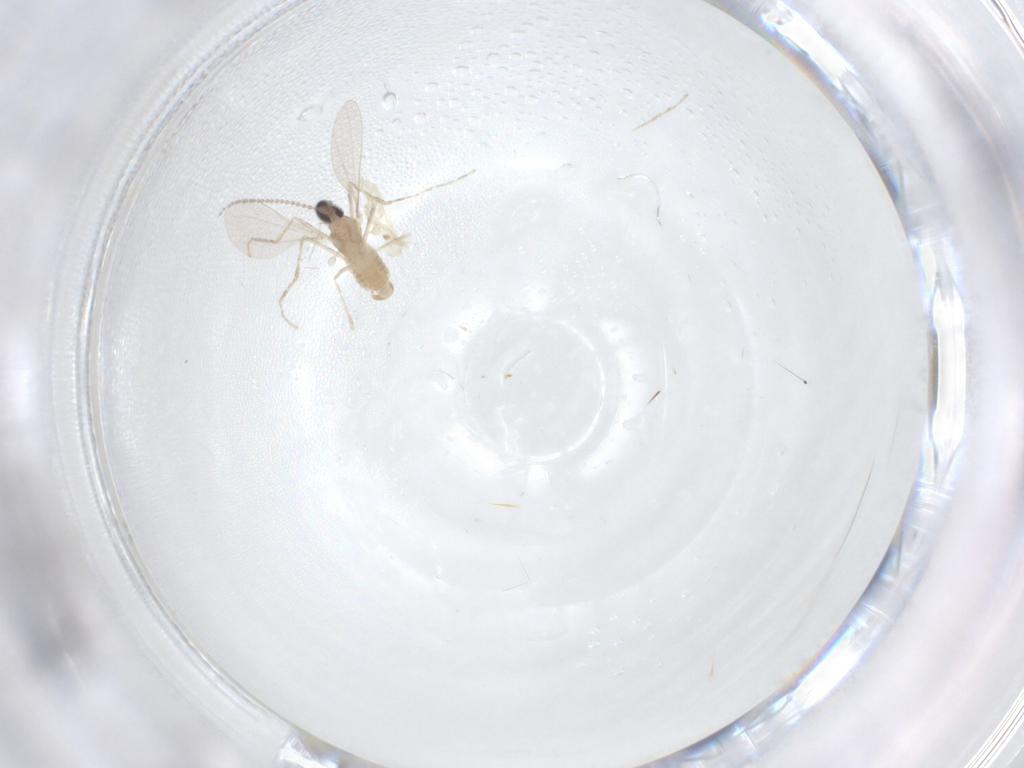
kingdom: Animalia
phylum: Arthropoda
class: Insecta
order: Diptera
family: Cecidomyiidae
